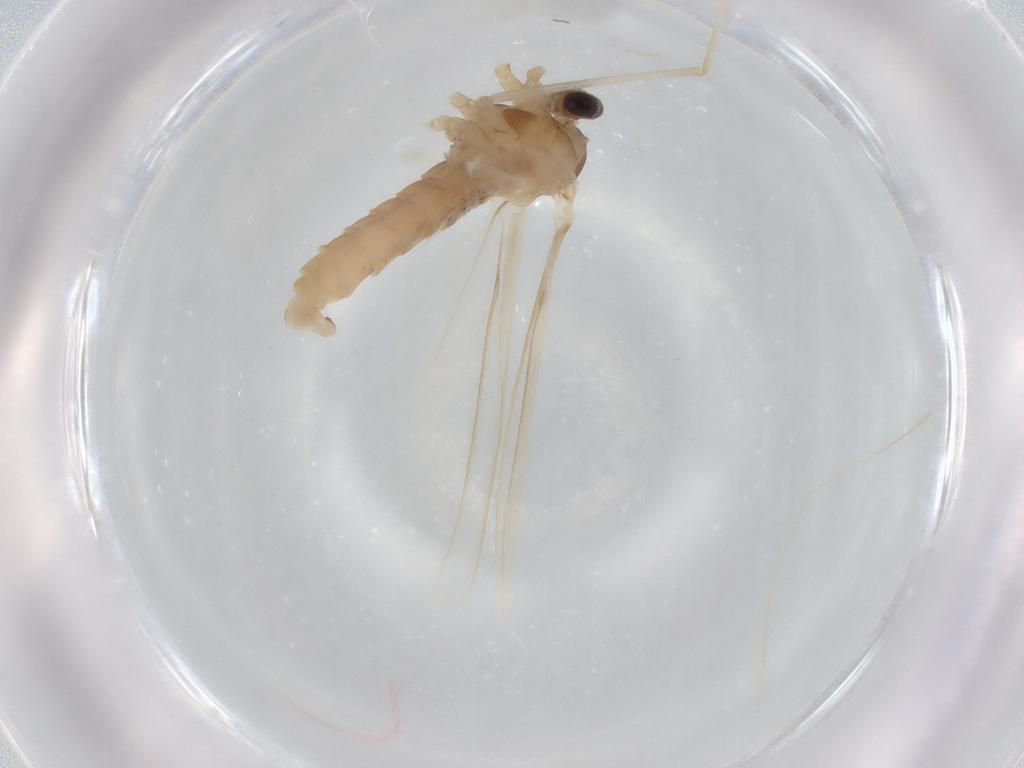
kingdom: Animalia
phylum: Arthropoda
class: Insecta
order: Diptera
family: Cecidomyiidae
